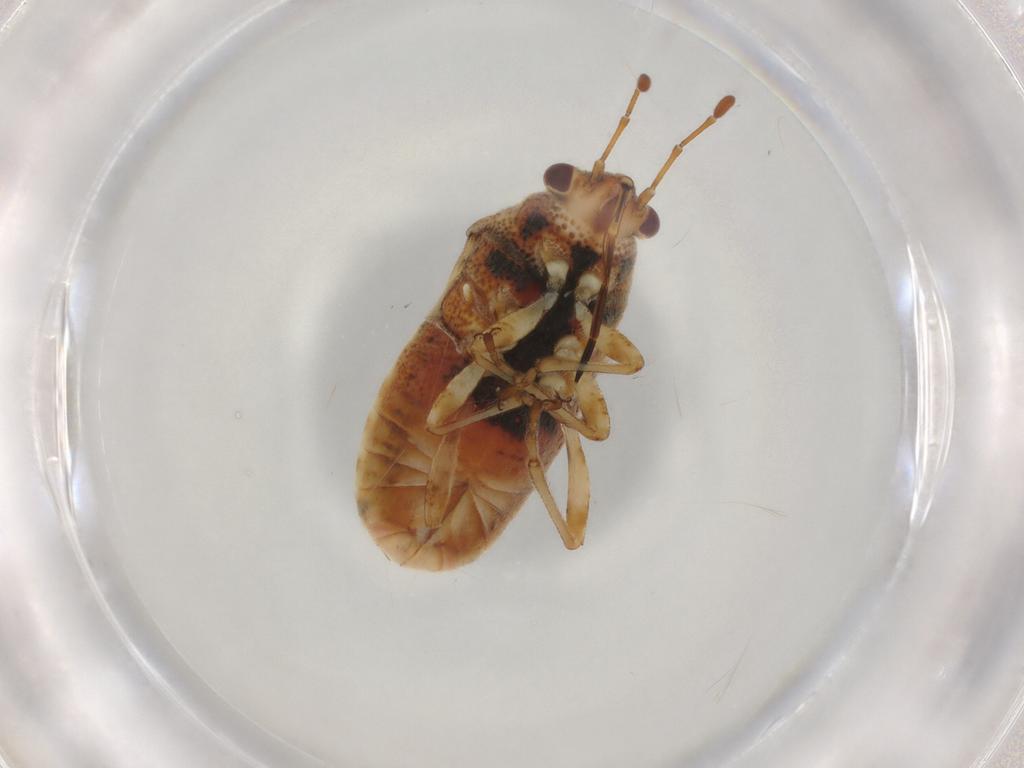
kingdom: Animalia
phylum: Arthropoda
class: Insecta
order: Hemiptera
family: Lygaeidae
